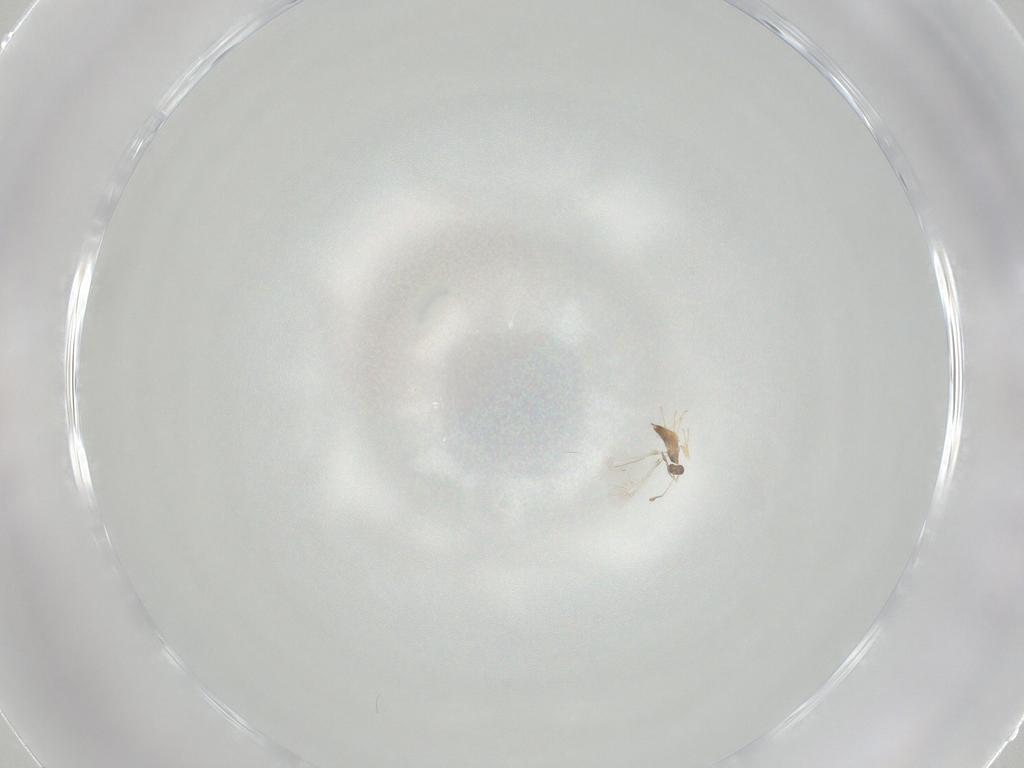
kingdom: Animalia
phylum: Arthropoda
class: Insecta
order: Hymenoptera
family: Mymaridae
